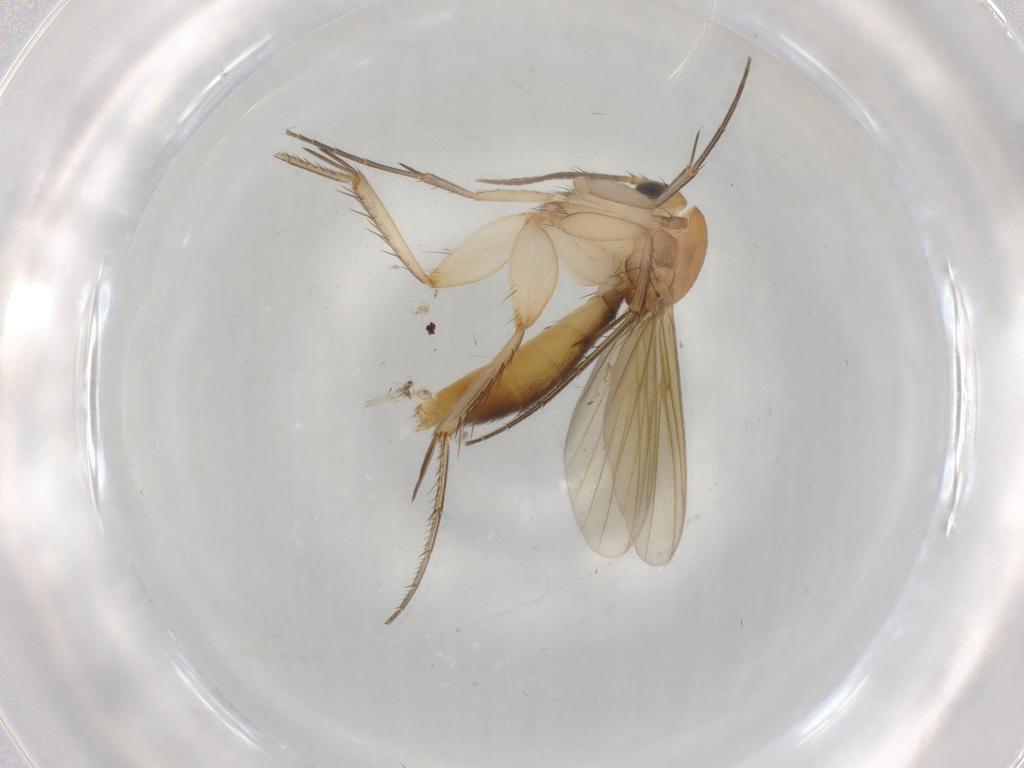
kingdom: Animalia
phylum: Arthropoda
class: Insecta
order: Diptera
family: Mycetophilidae
